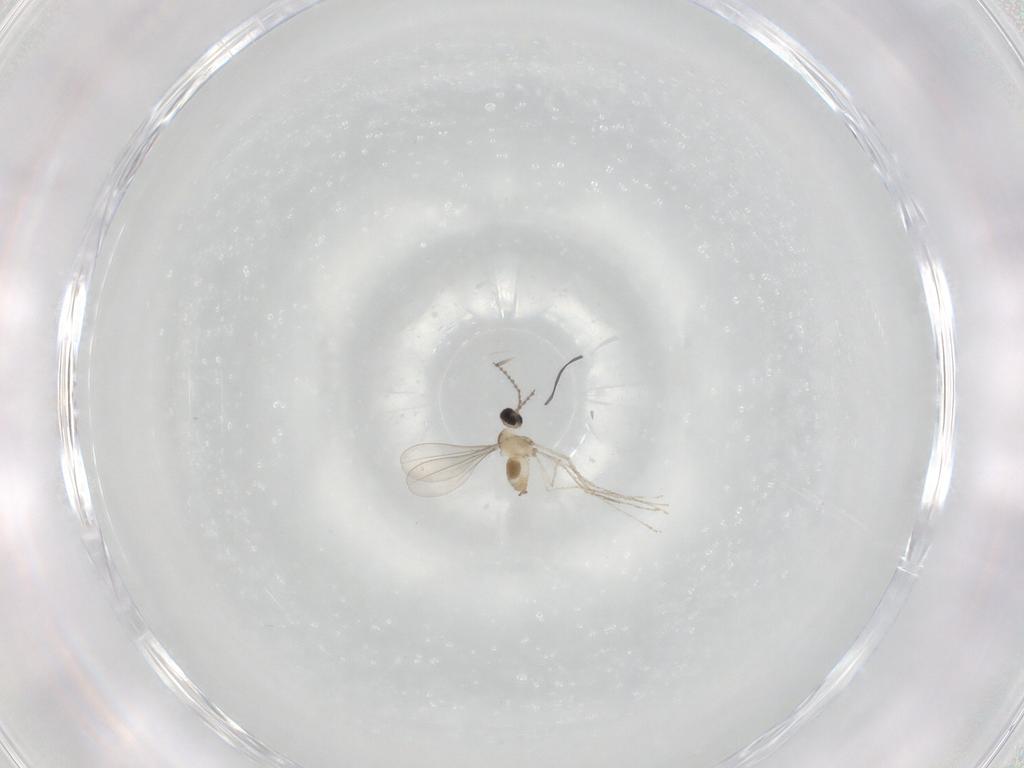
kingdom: Animalia
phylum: Arthropoda
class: Insecta
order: Diptera
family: Cecidomyiidae
